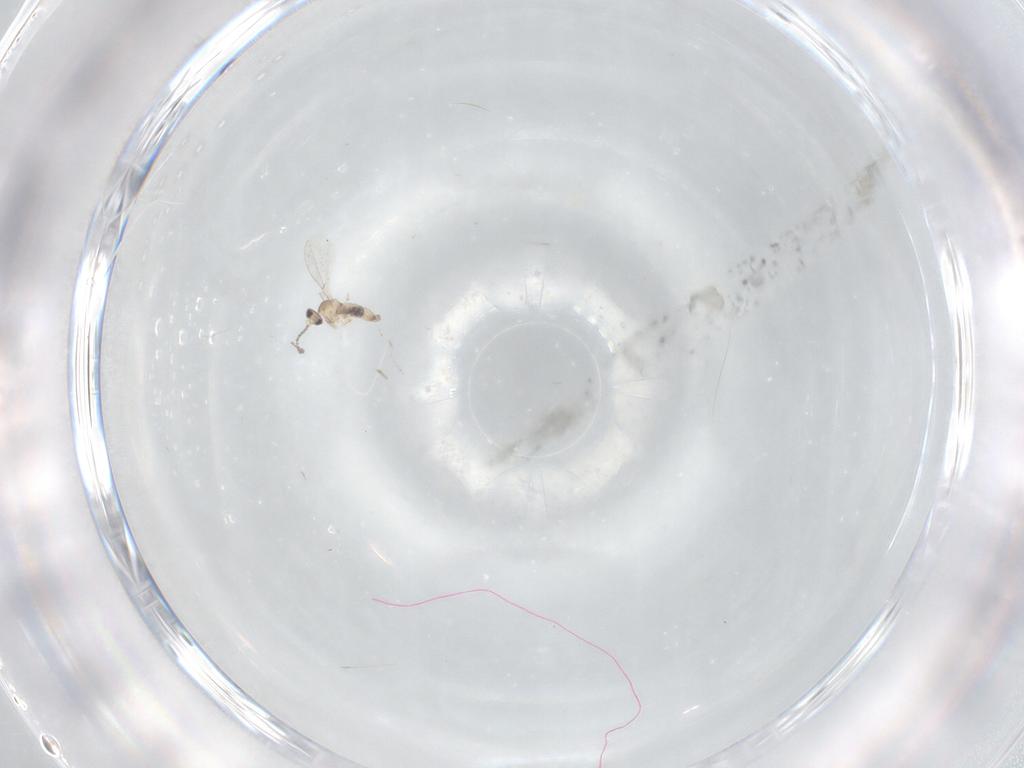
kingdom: Animalia
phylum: Arthropoda
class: Insecta
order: Diptera
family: Cecidomyiidae
